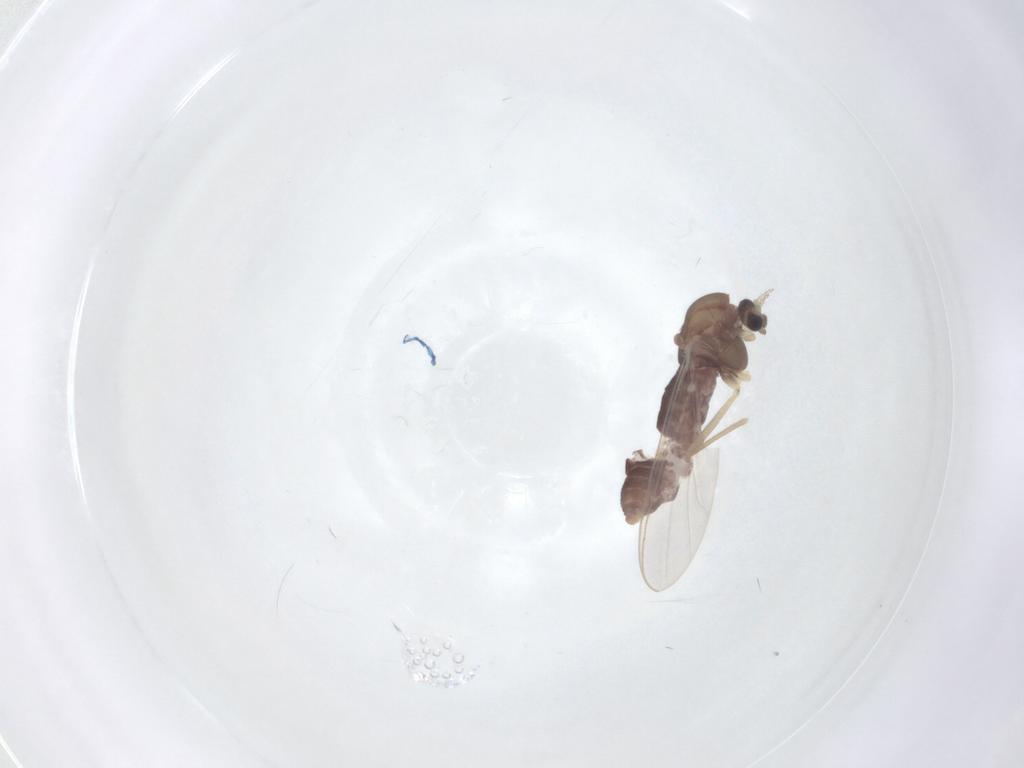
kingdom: Animalia
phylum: Arthropoda
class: Insecta
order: Diptera
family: Chironomidae
